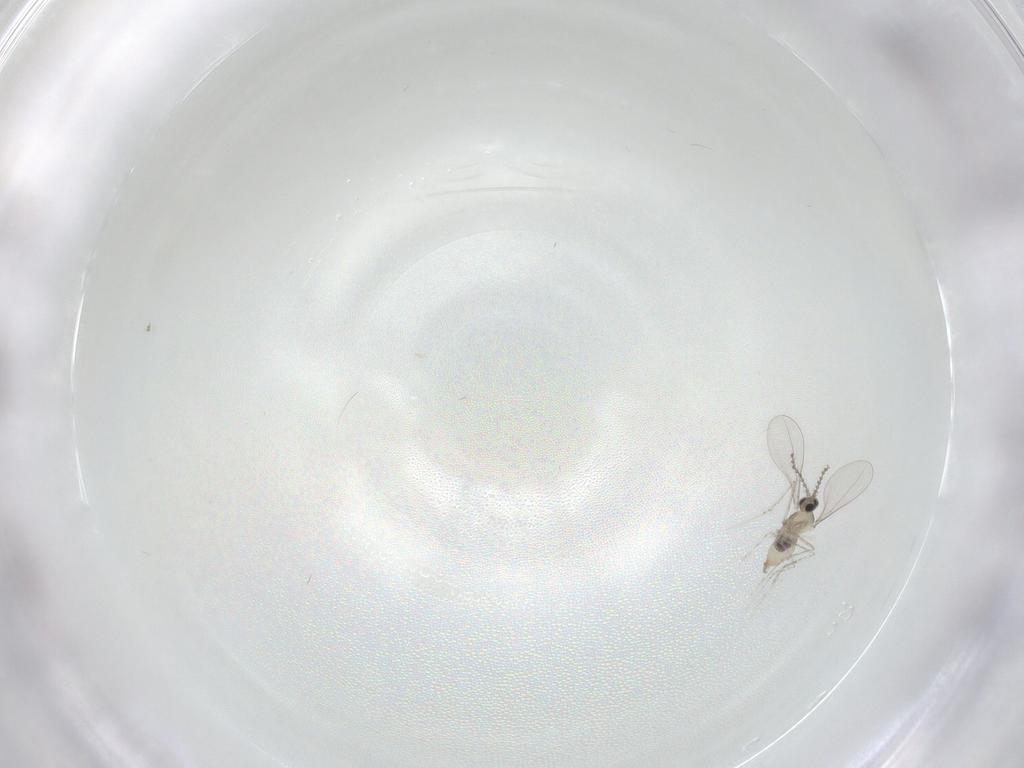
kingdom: Animalia
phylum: Arthropoda
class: Insecta
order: Diptera
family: Cecidomyiidae
